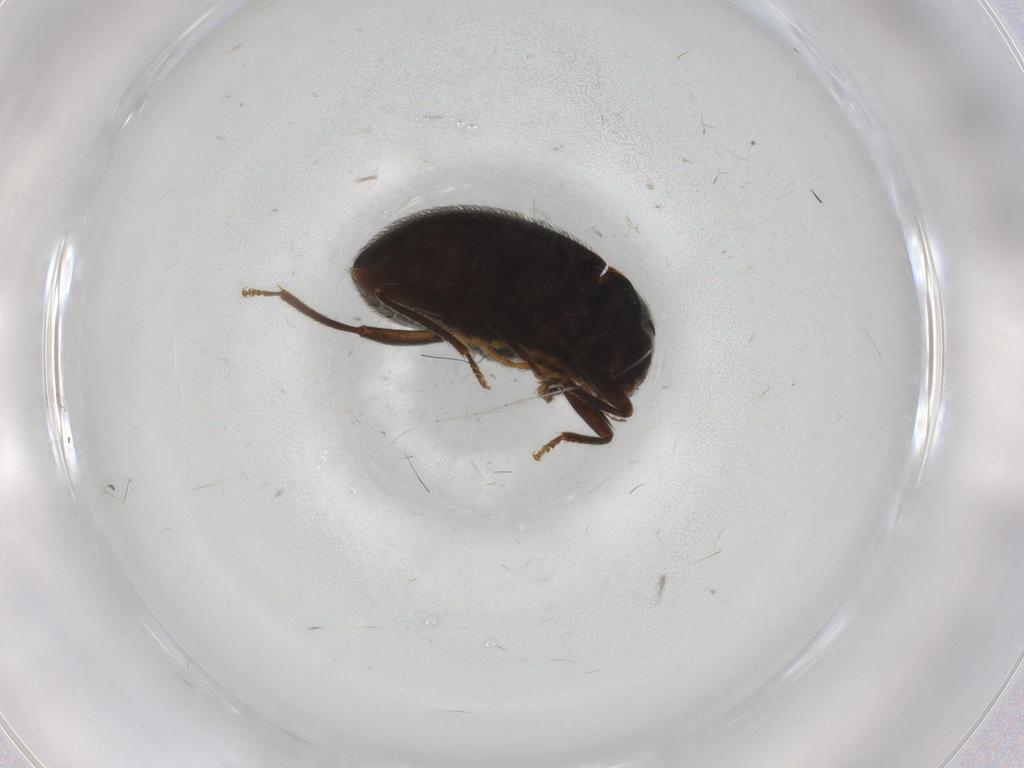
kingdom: Animalia
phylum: Arthropoda
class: Insecta
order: Coleoptera
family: Ptilodactylidae
